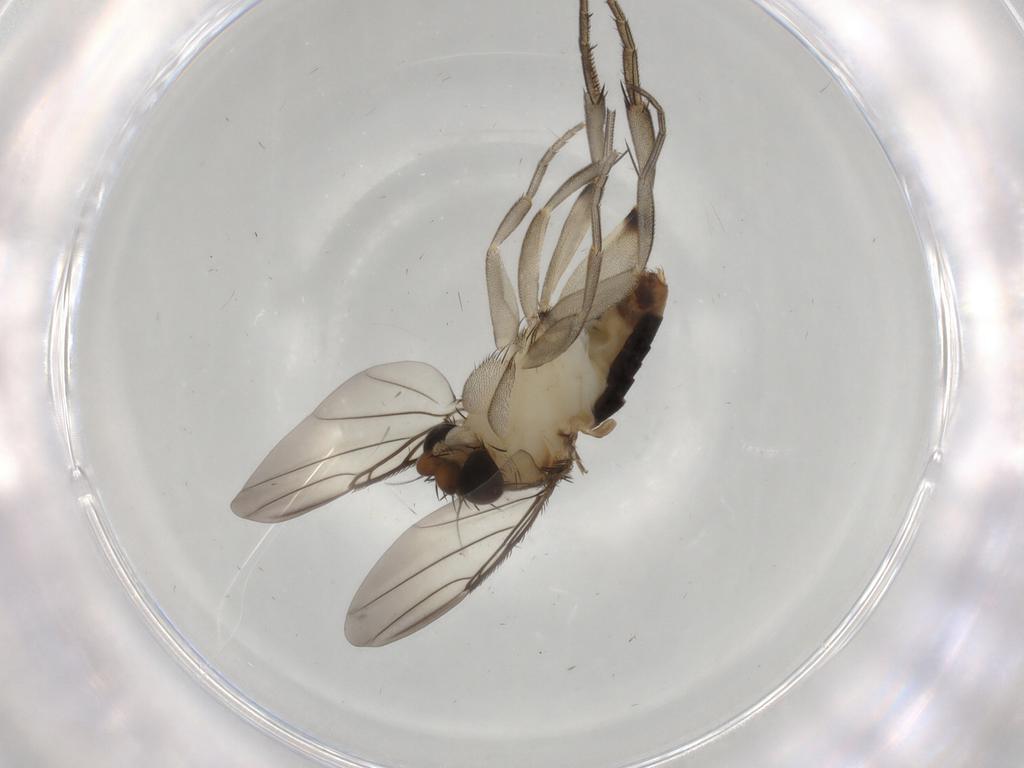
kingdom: Animalia
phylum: Arthropoda
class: Insecta
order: Diptera
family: Phoridae
